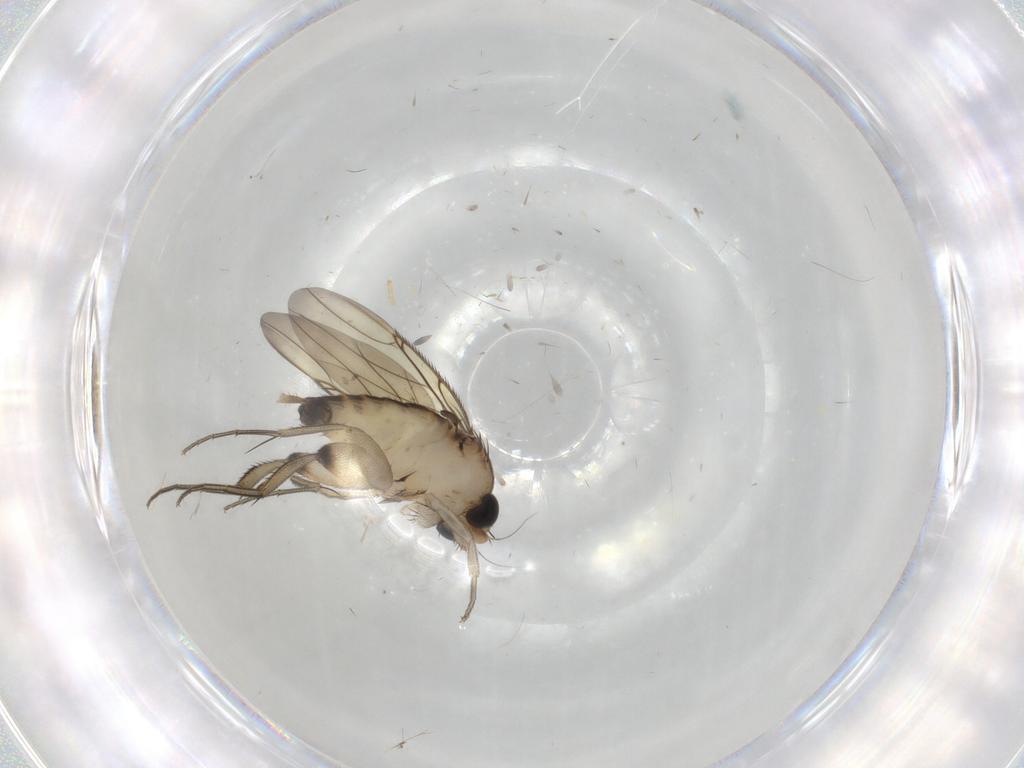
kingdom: Animalia
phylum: Arthropoda
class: Insecta
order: Diptera
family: Phoridae
